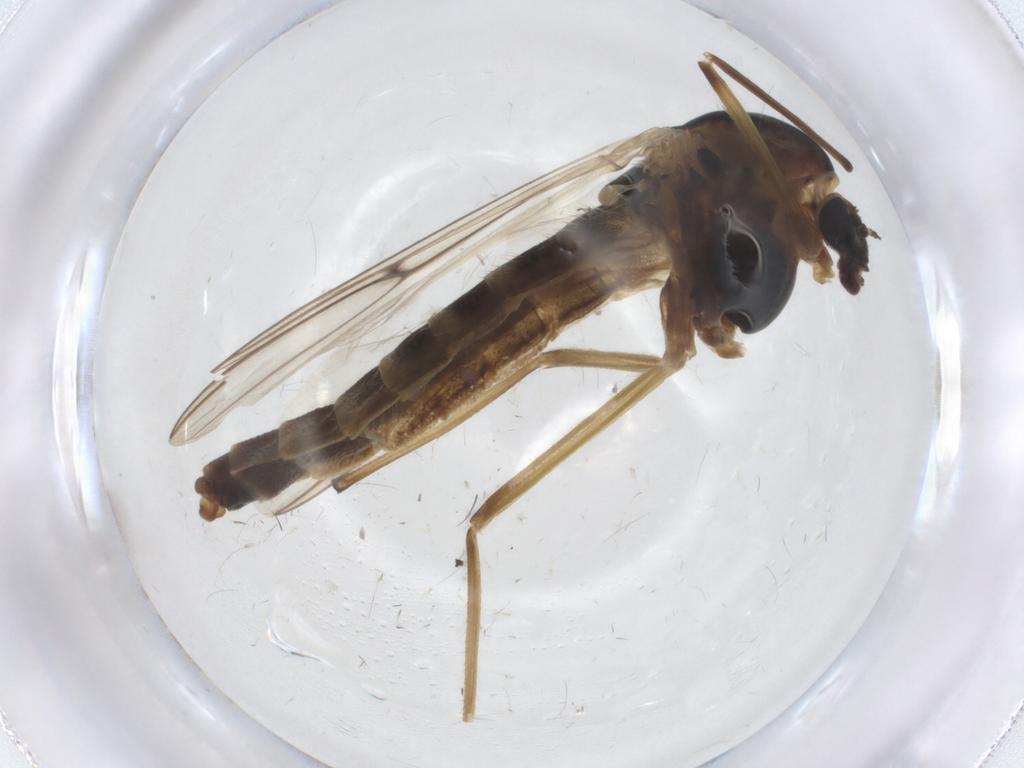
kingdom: Animalia
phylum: Arthropoda
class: Insecta
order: Diptera
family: Chironomidae
